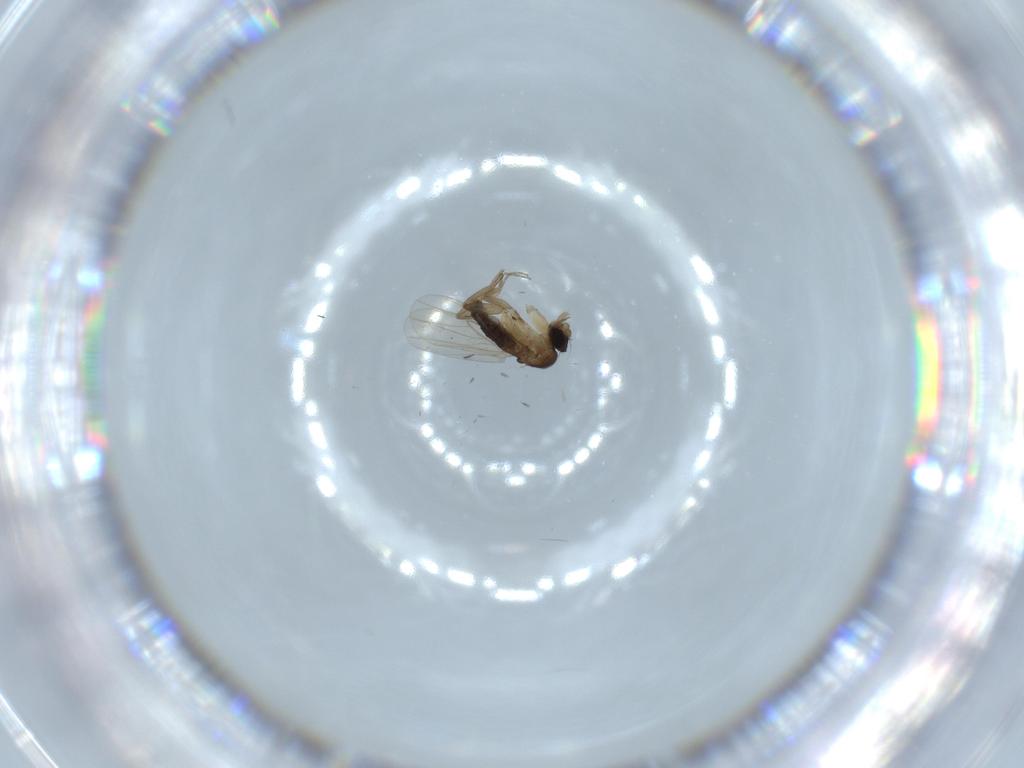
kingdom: Animalia
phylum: Arthropoda
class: Insecta
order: Diptera
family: Phoridae
